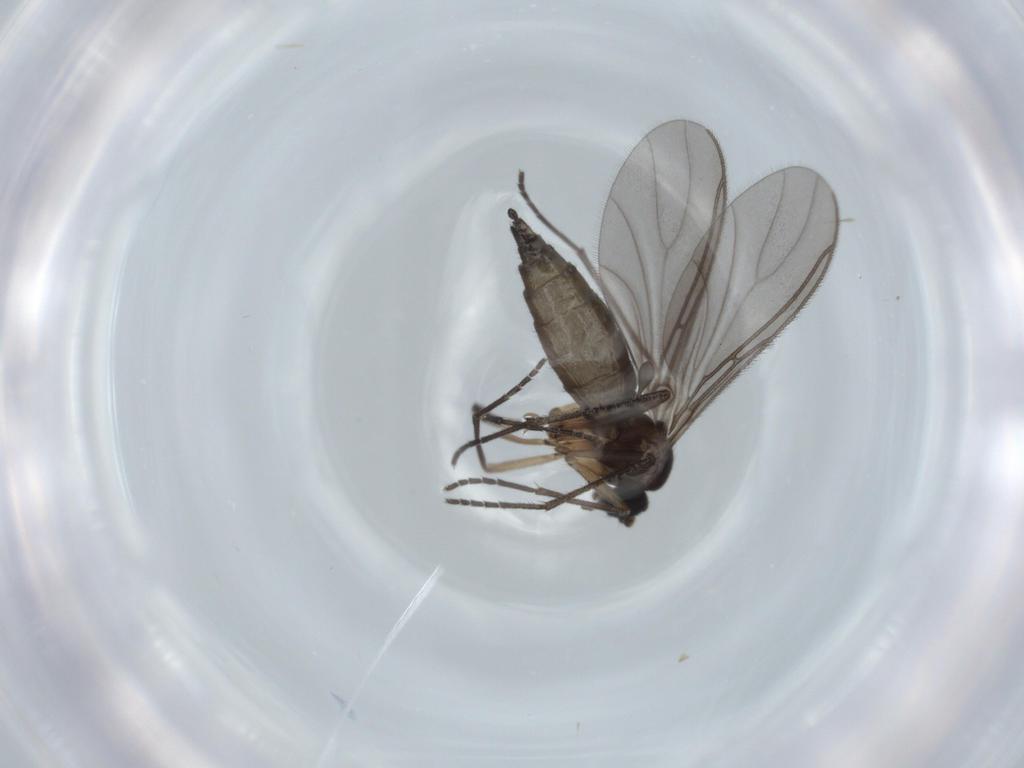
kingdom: Animalia
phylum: Arthropoda
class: Insecta
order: Diptera
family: Sciaridae
